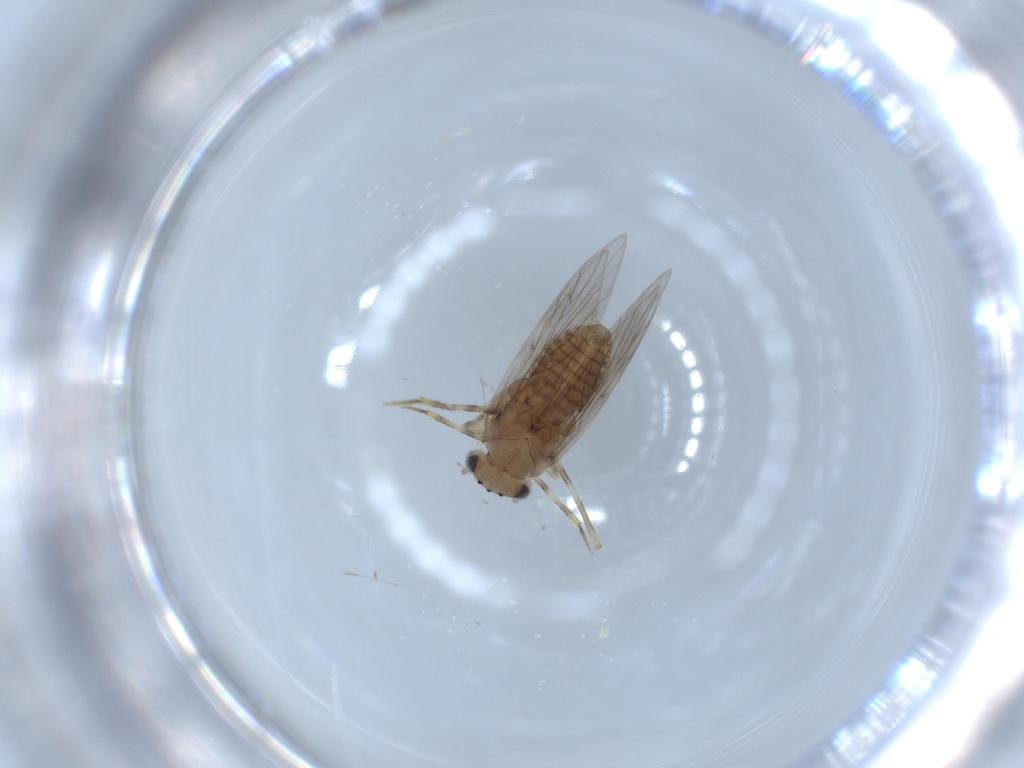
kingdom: Animalia
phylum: Arthropoda
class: Insecta
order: Psocodea
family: Lepidopsocidae
